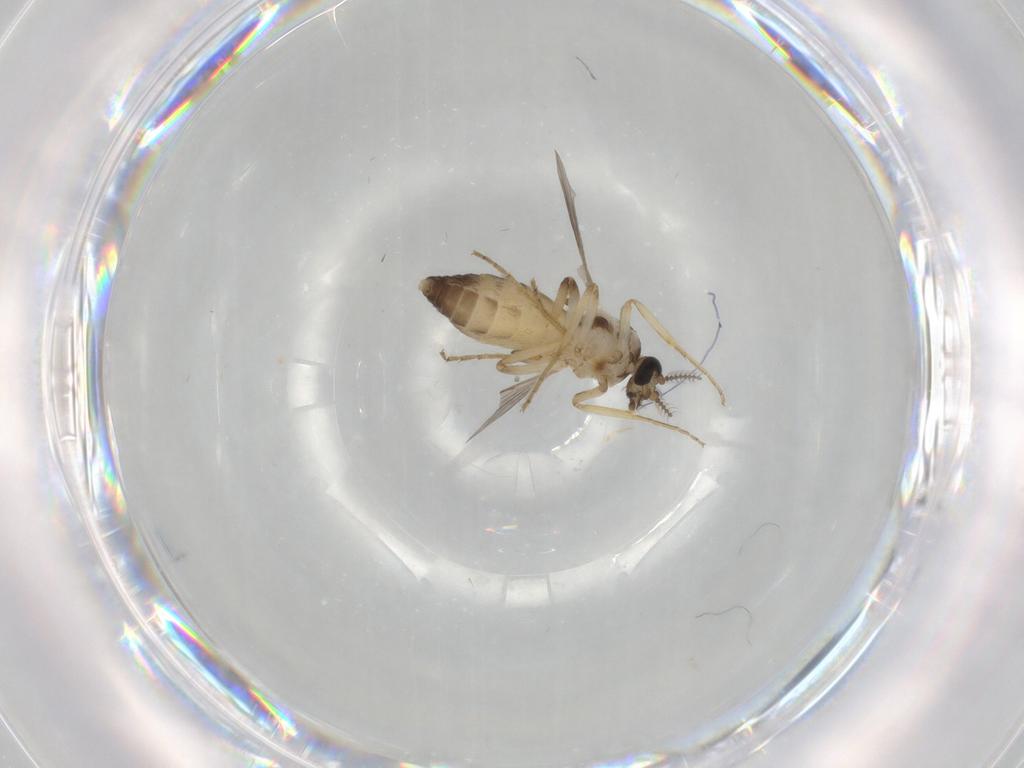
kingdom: Animalia
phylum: Arthropoda
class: Insecta
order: Diptera
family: Ceratopogonidae
